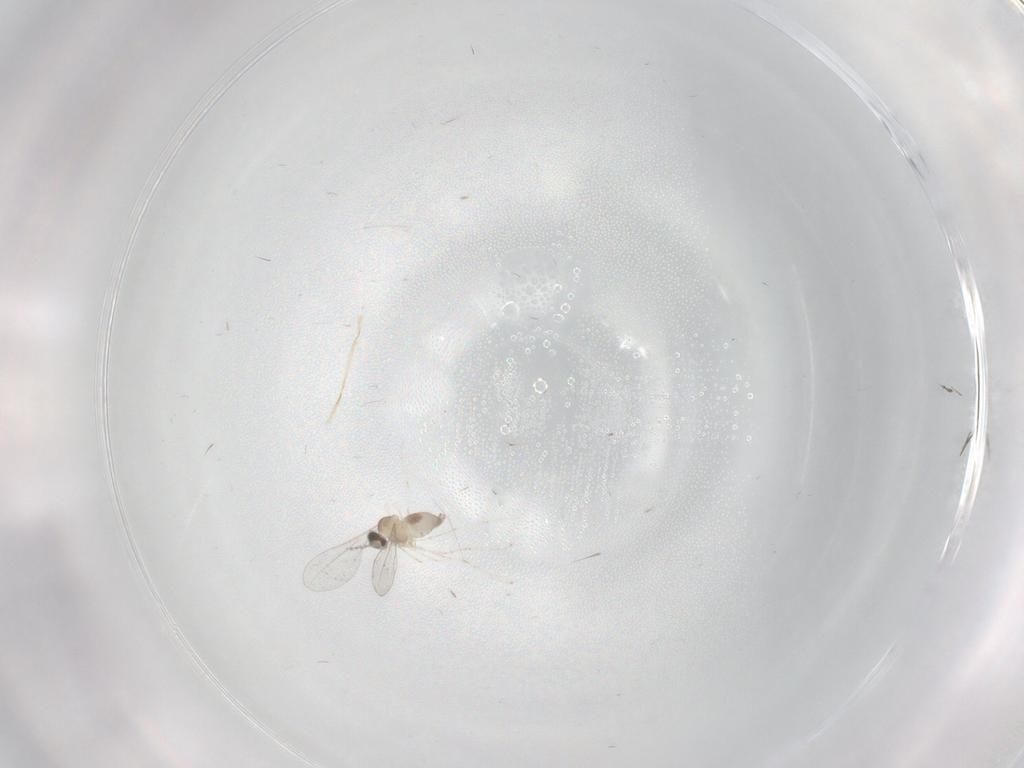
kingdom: Animalia
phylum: Arthropoda
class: Insecta
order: Diptera
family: Cecidomyiidae
